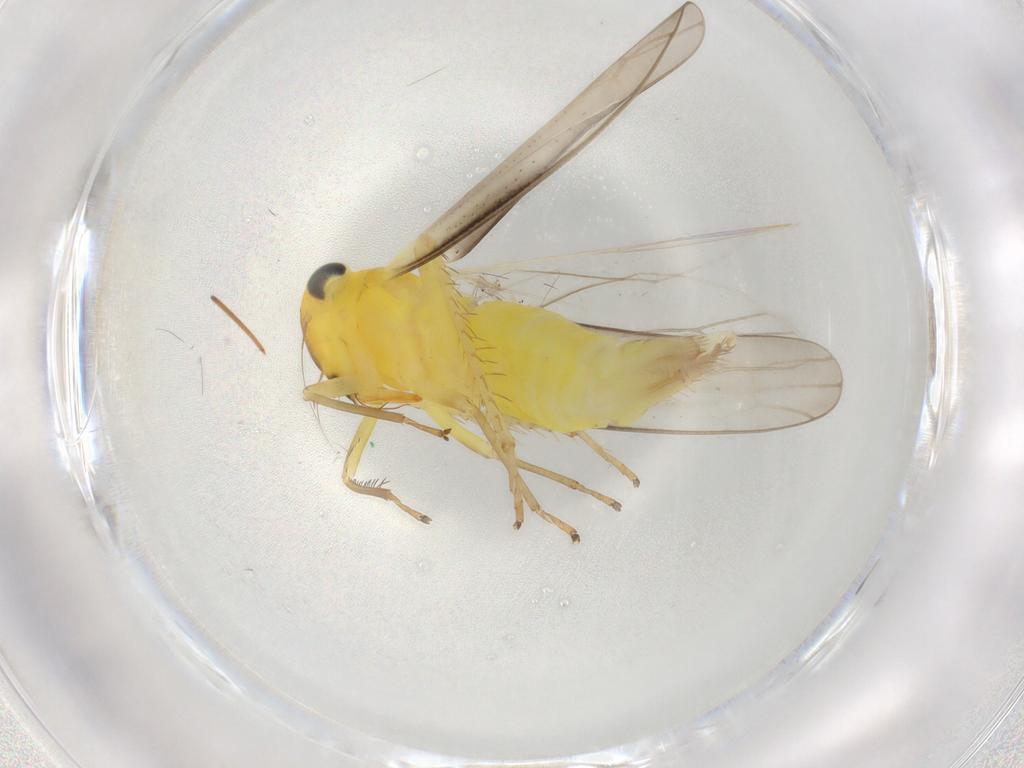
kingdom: Animalia
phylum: Arthropoda
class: Insecta
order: Hemiptera
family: Cicadellidae
